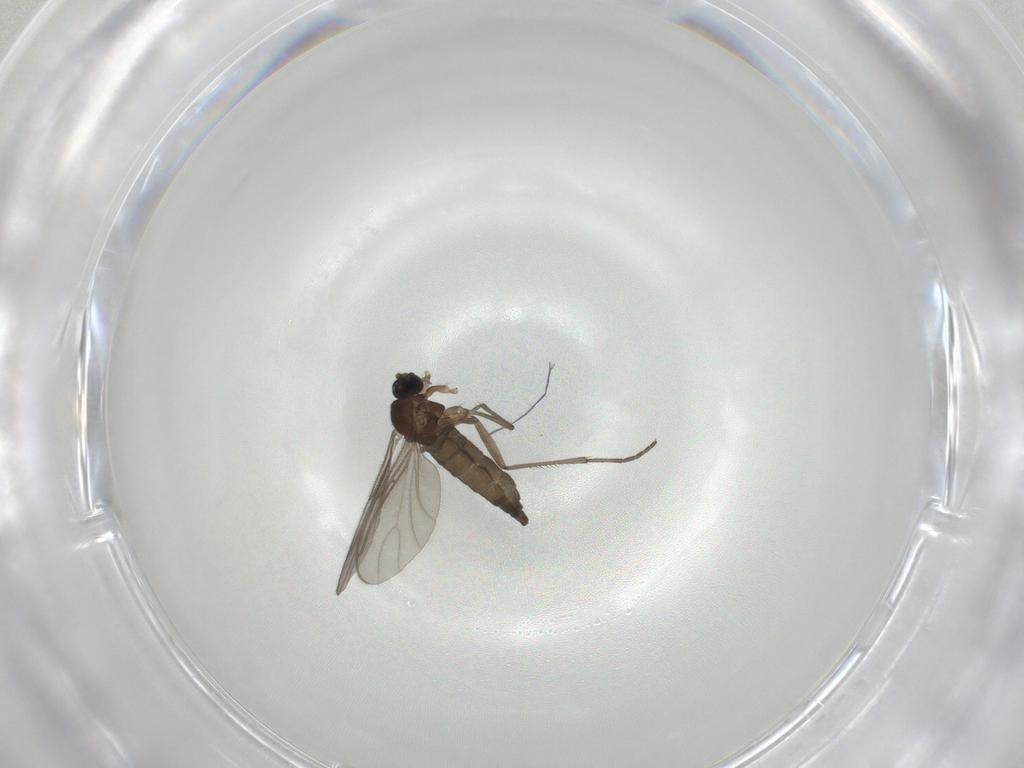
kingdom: Animalia
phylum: Arthropoda
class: Insecta
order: Diptera
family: Sciaridae
